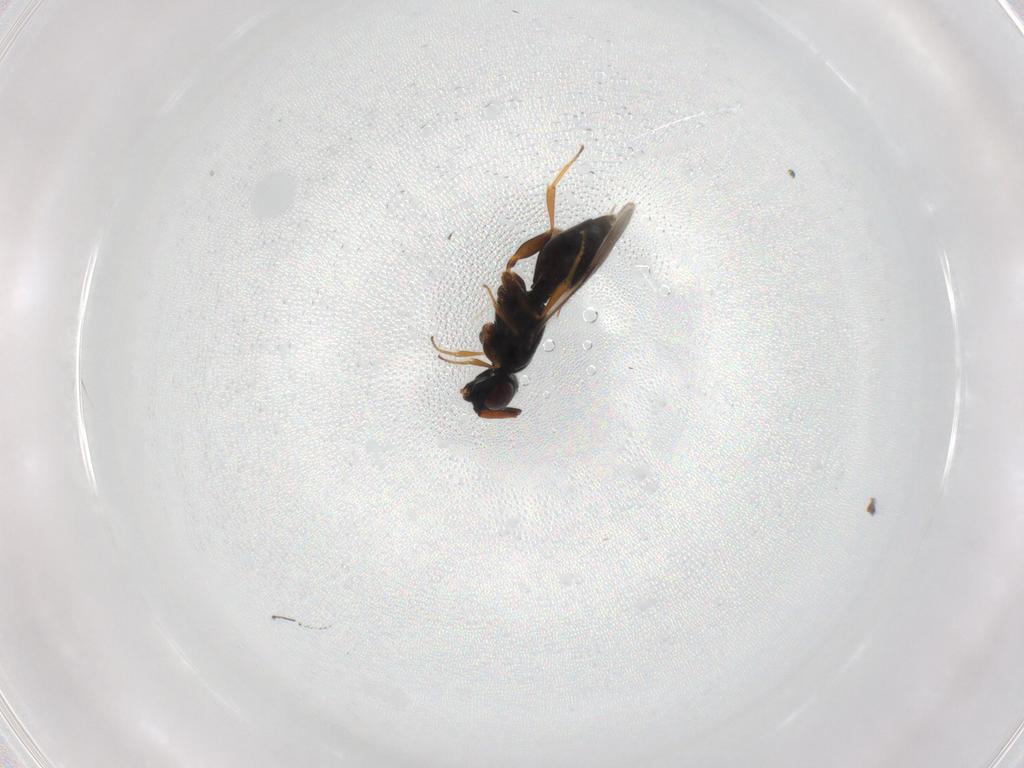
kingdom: Animalia
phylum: Arthropoda
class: Insecta
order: Hymenoptera
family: Megaspilidae
